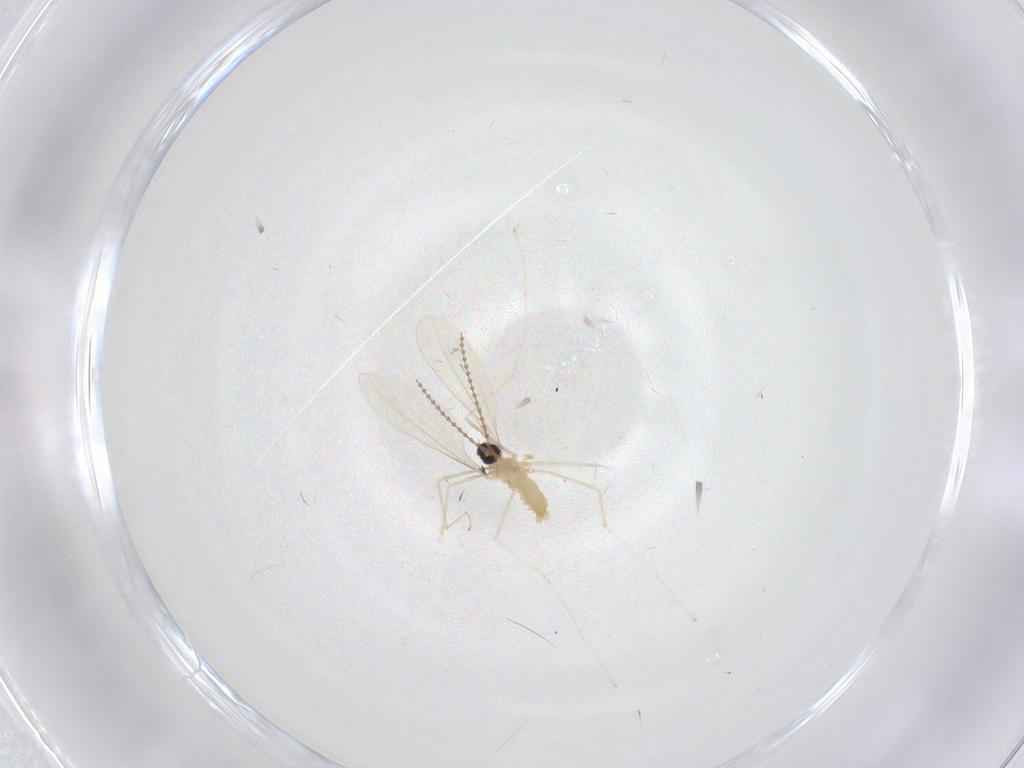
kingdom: Animalia
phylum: Arthropoda
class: Insecta
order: Diptera
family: Cecidomyiidae
